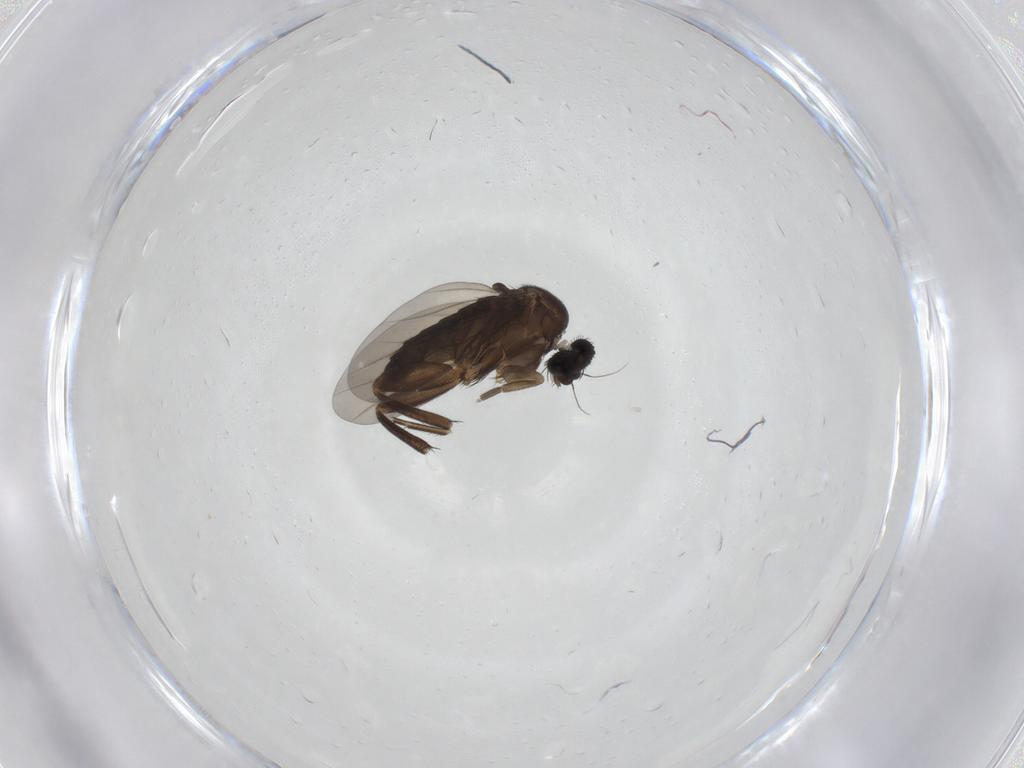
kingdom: Animalia
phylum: Arthropoda
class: Insecta
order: Diptera
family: Phoridae
